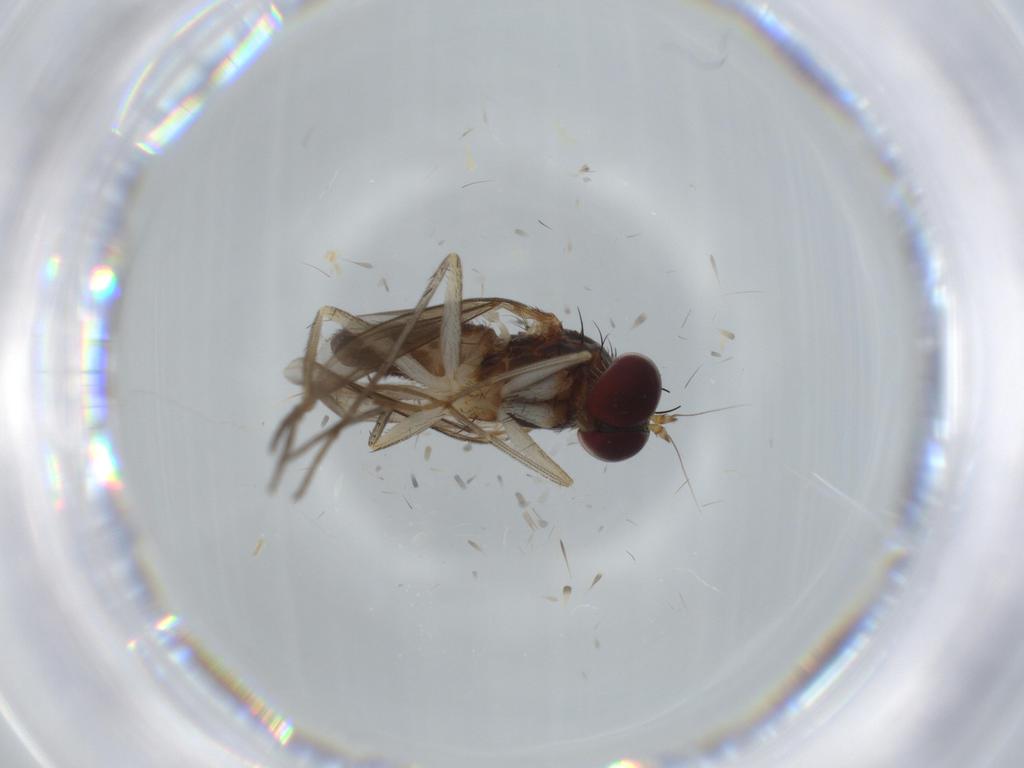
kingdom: Animalia
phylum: Arthropoda
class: Insecta
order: Diptera
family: Dolichopodidae
